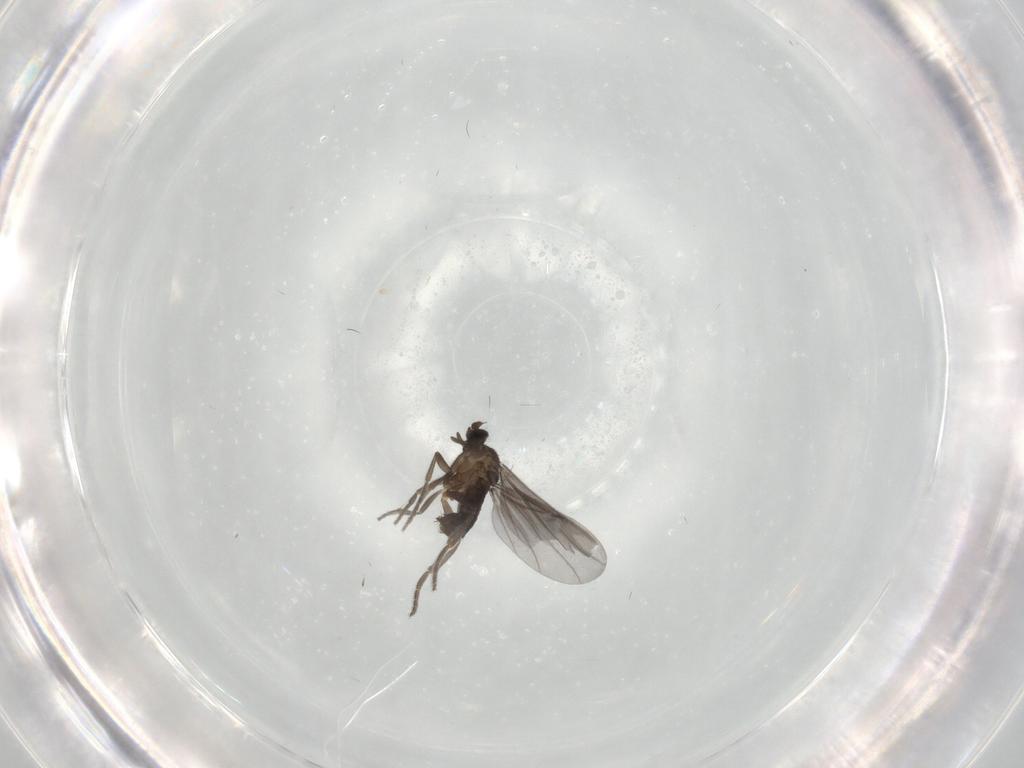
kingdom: Animalia
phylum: Arthropoda
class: Insecta
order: Diptera
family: Phoridae
